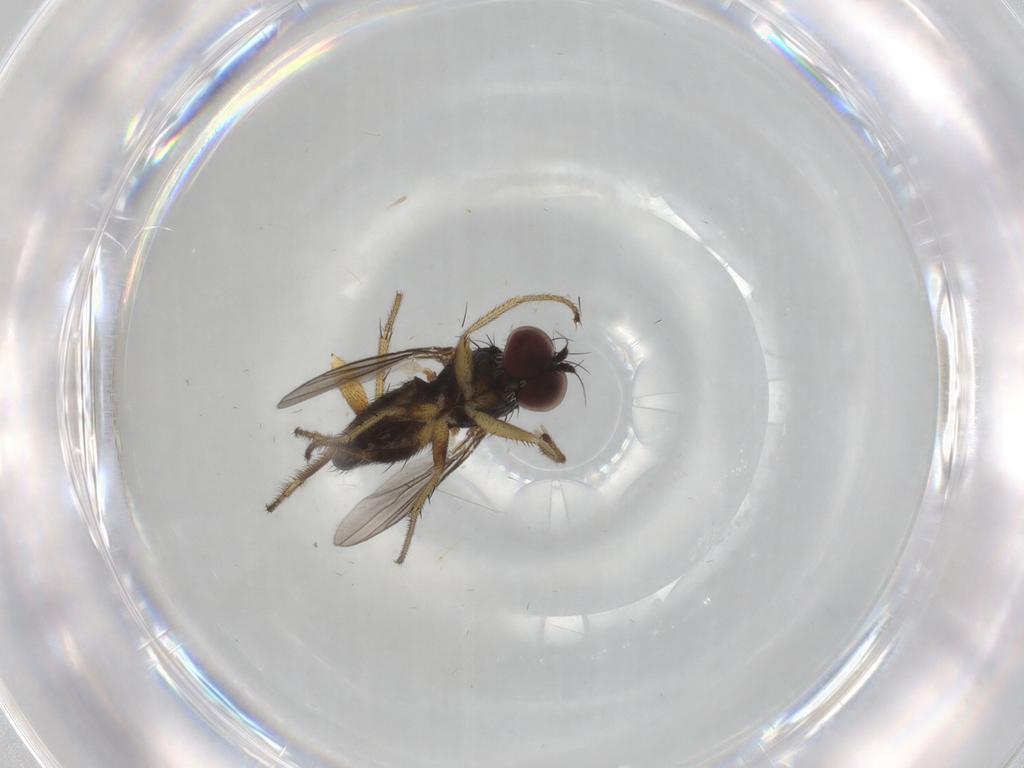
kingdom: Animalia
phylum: Arthropoda
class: Insecta
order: Diptera
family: Dolichopodidae
